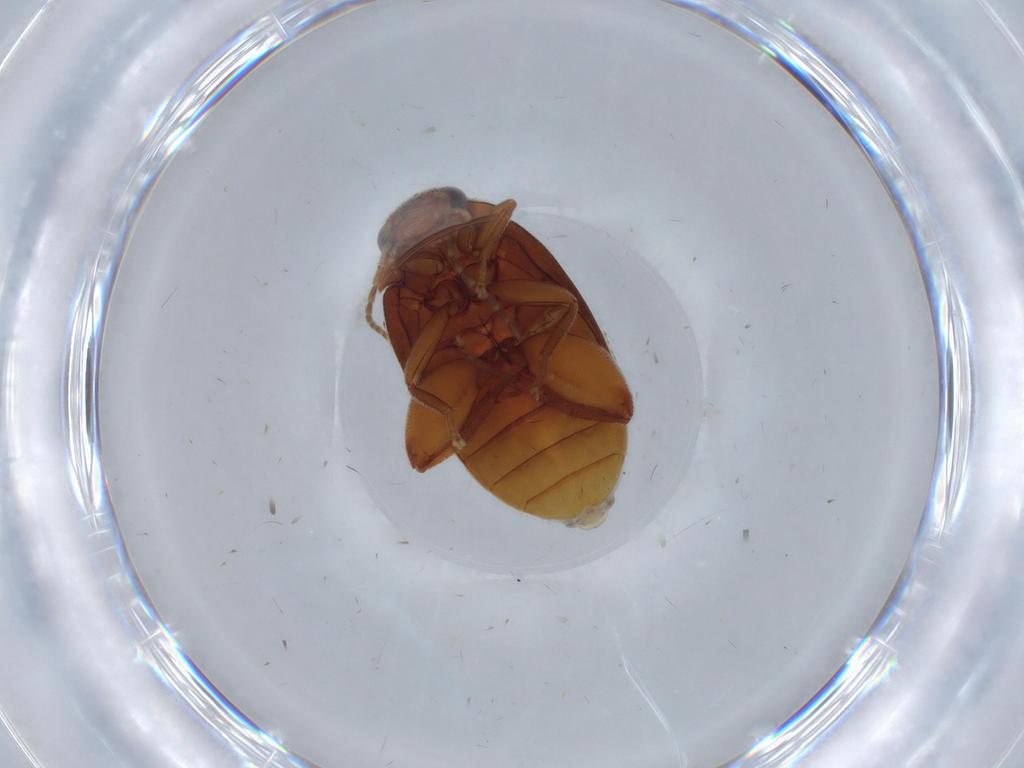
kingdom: Animalia
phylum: Arthropoda
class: Insecta
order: Coleoptera
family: Scirtidae
